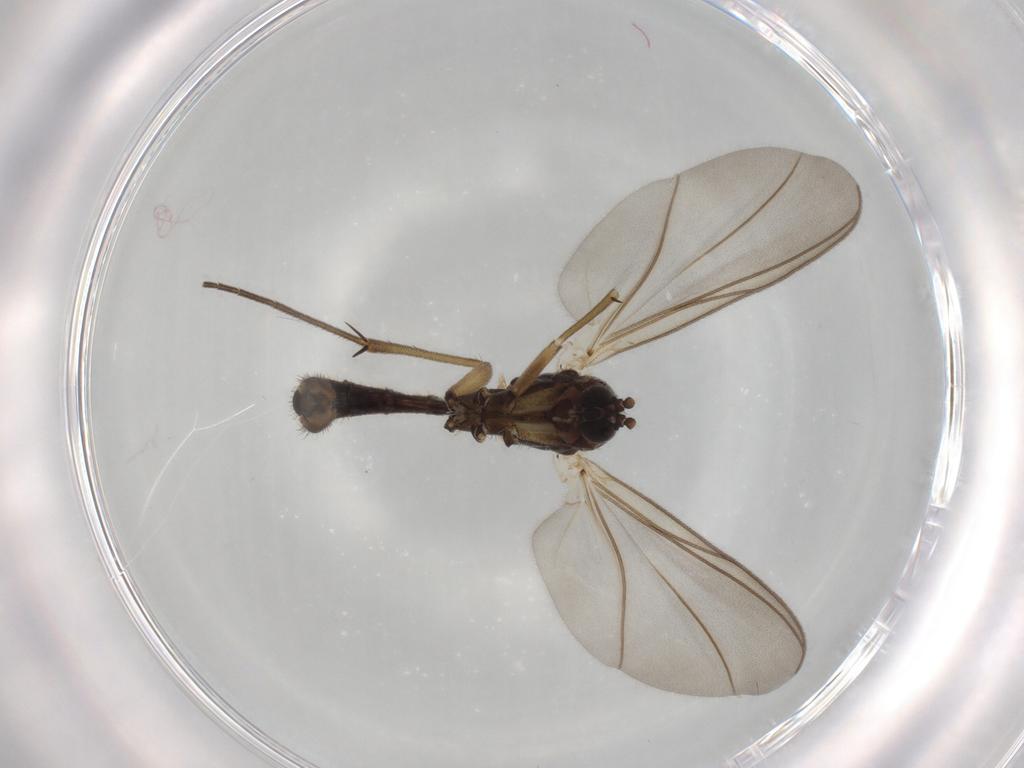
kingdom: Animalia
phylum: Arthropoda
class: Insecta
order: Diptera
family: Mycetophilidae
